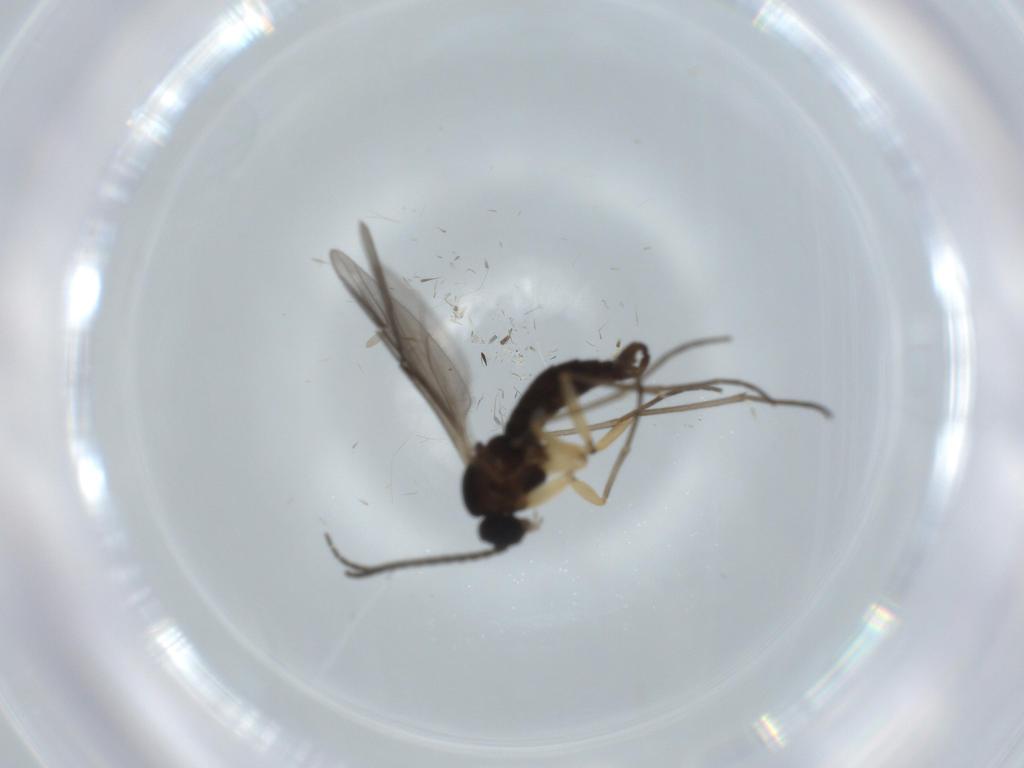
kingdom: Animalia
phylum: Arthropoda
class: Insecta
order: Diptera
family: Sciaridae
